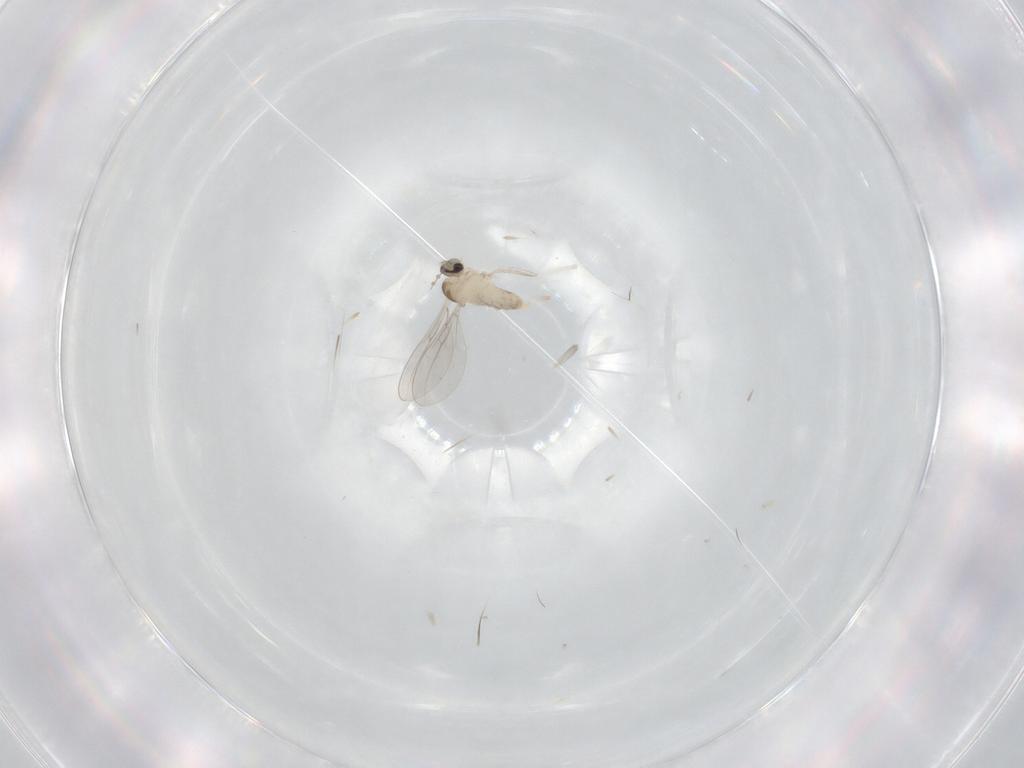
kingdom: Animalia
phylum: Arthropoda
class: Insecta
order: Diptera
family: Cecidomyiidae
